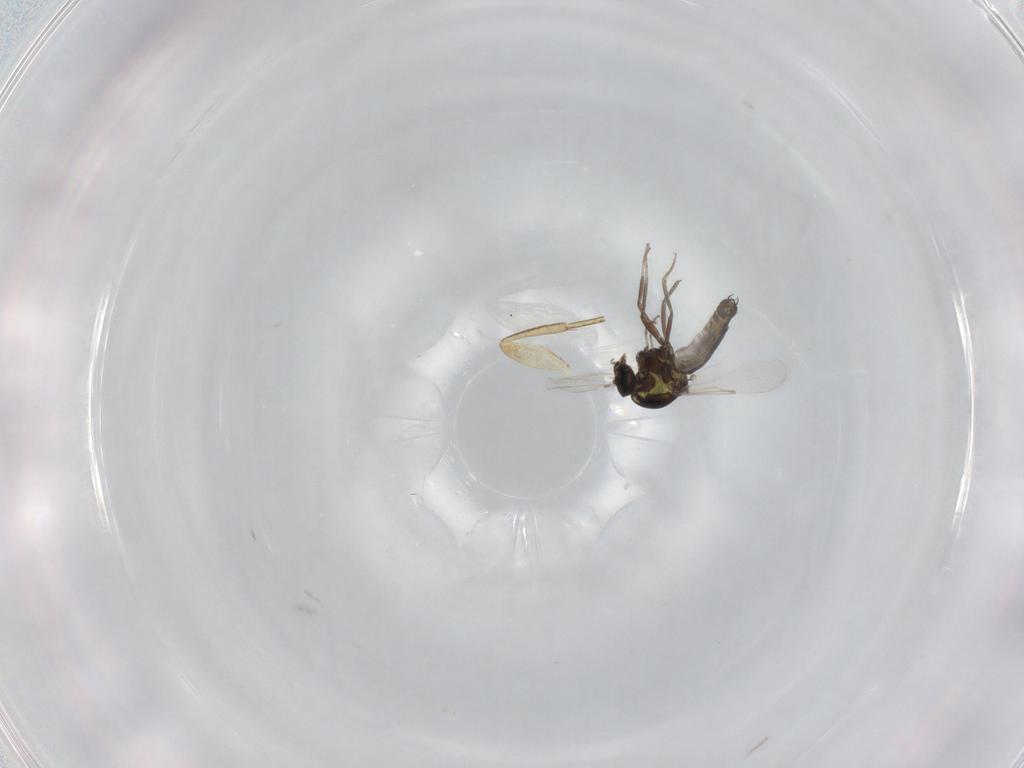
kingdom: Animalia
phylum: Arthropoda
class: Insecta
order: Diptera
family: Ceratopogonidae
